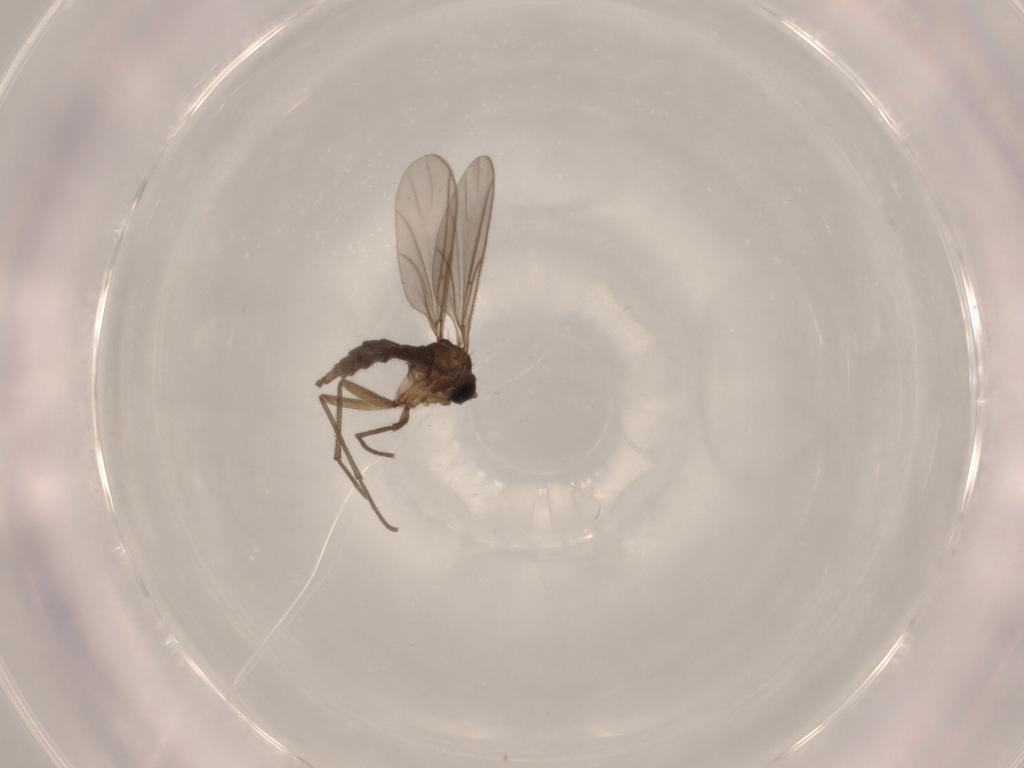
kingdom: Animalia
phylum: Arthropoda
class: Insecta
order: Diptera
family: Sciaridae
